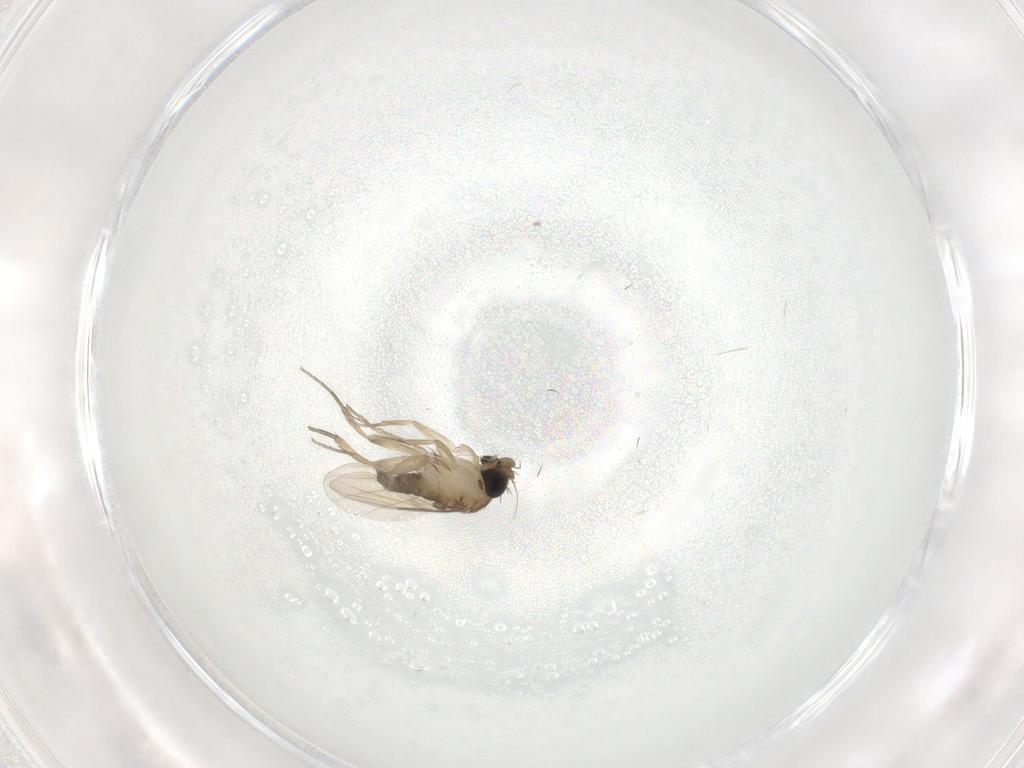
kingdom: Animalia
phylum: Arthropoda
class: Insecta
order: Diptera
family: Phoridae
